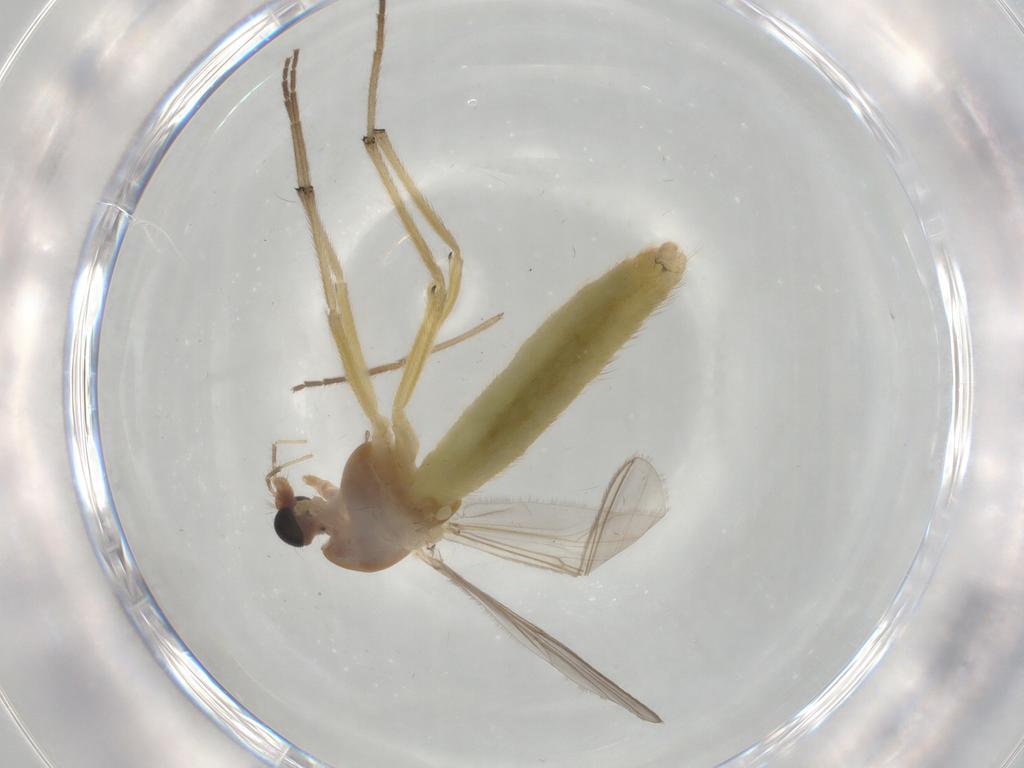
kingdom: Animalia
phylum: Arthropoda
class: Insecta
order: Diptera
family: Chironomidae
